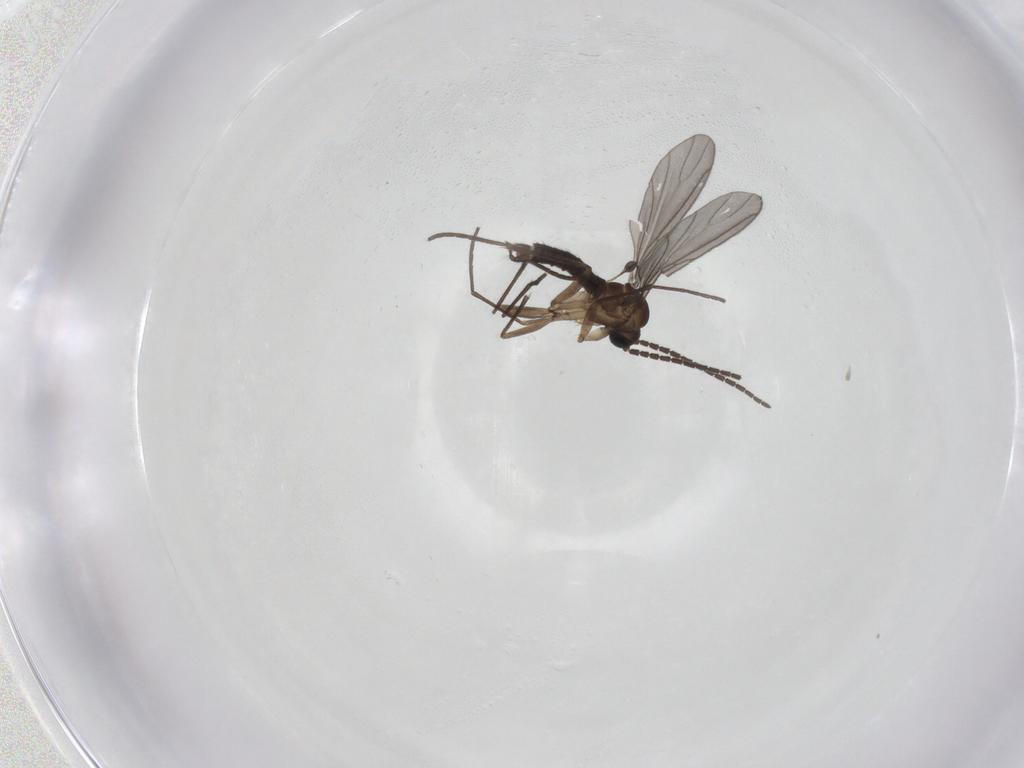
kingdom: Animalia
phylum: Arthropoda
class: Insecta
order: Diptera
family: Sciaridae
